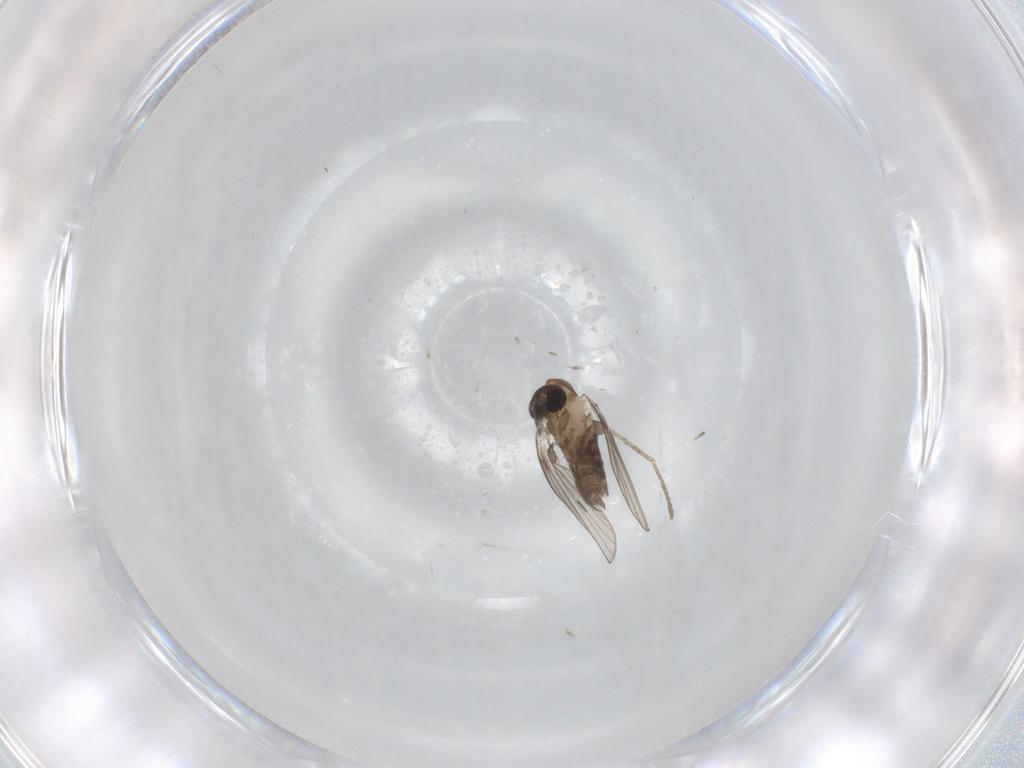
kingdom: Animalia
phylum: Arthropoda
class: Insecta
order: Diptera
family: Psychodidae
